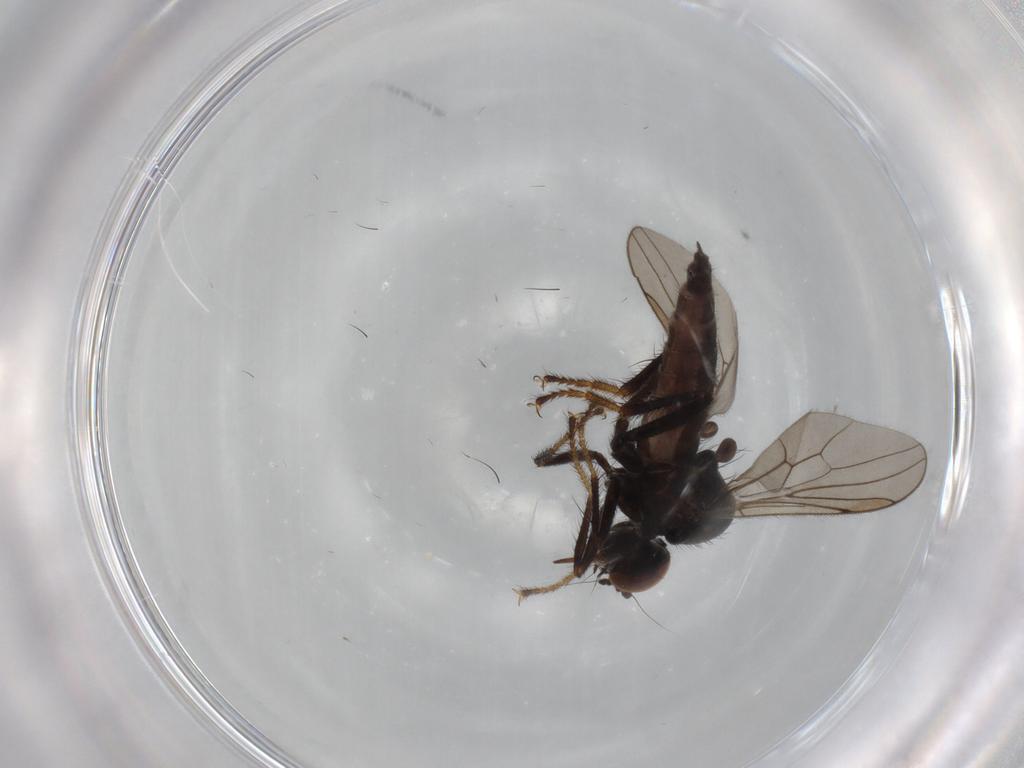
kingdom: Animalia
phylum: Arthropoda
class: Insecta
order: Diptera
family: Hybotidae
